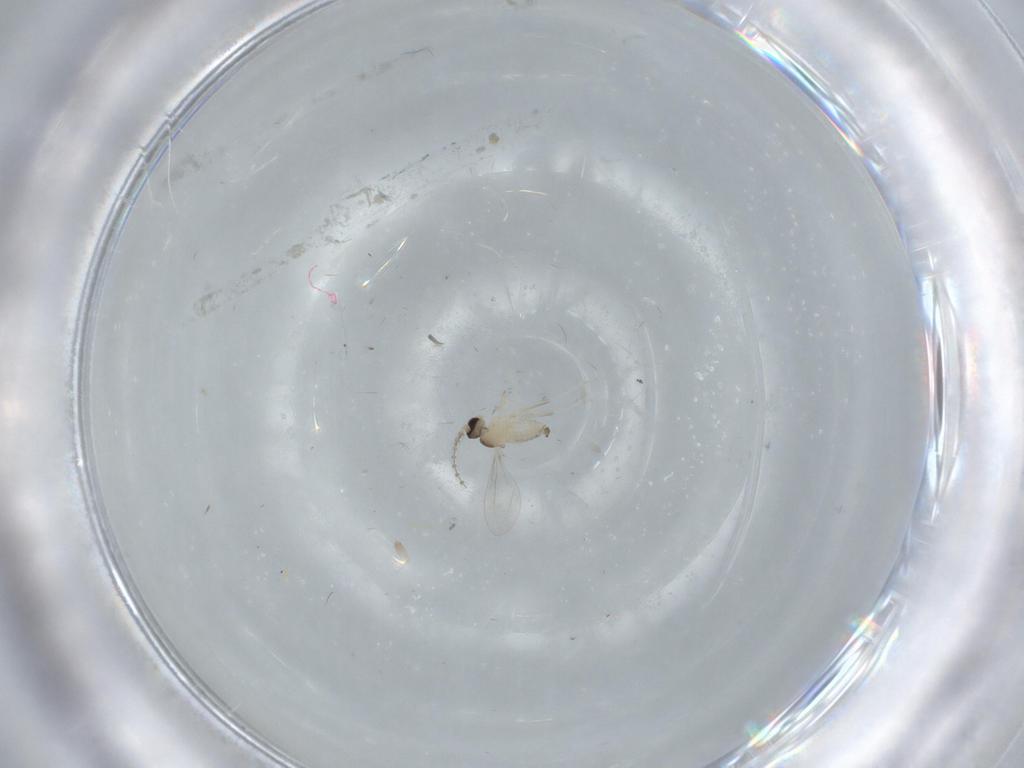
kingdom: Animalia
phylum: Arthropoda
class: Insecta
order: Diptera
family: Cecidomyiidae
